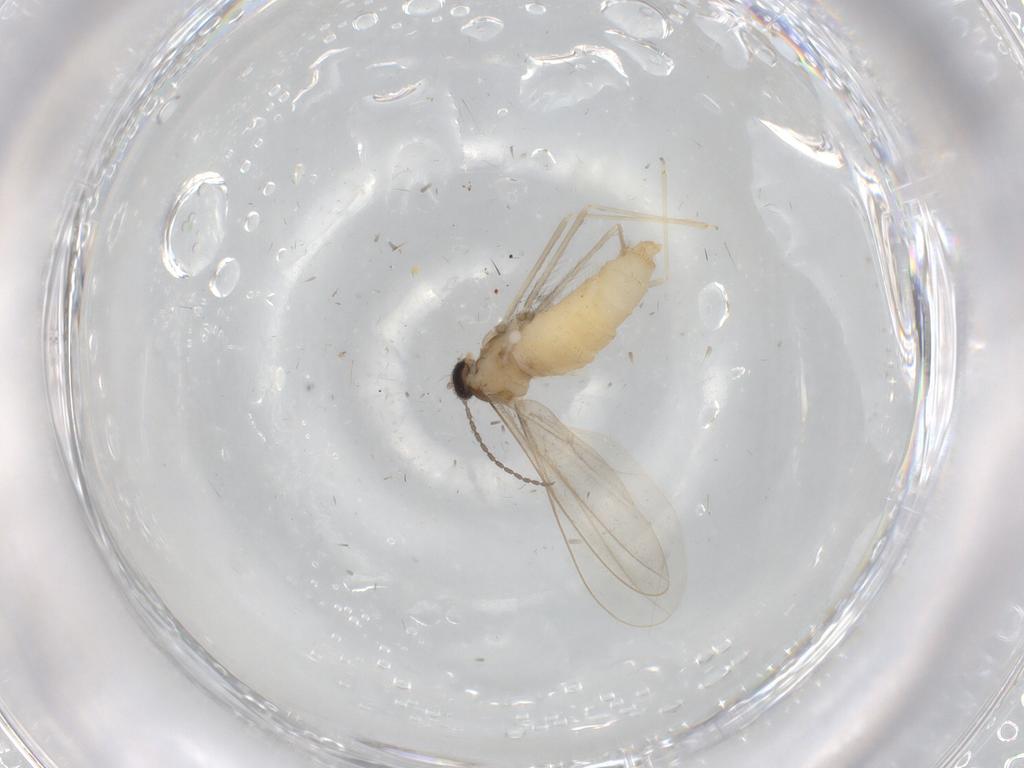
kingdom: Animalia
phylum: Arthropoda
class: Insecta
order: Diptera
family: Cecidomyiidae
